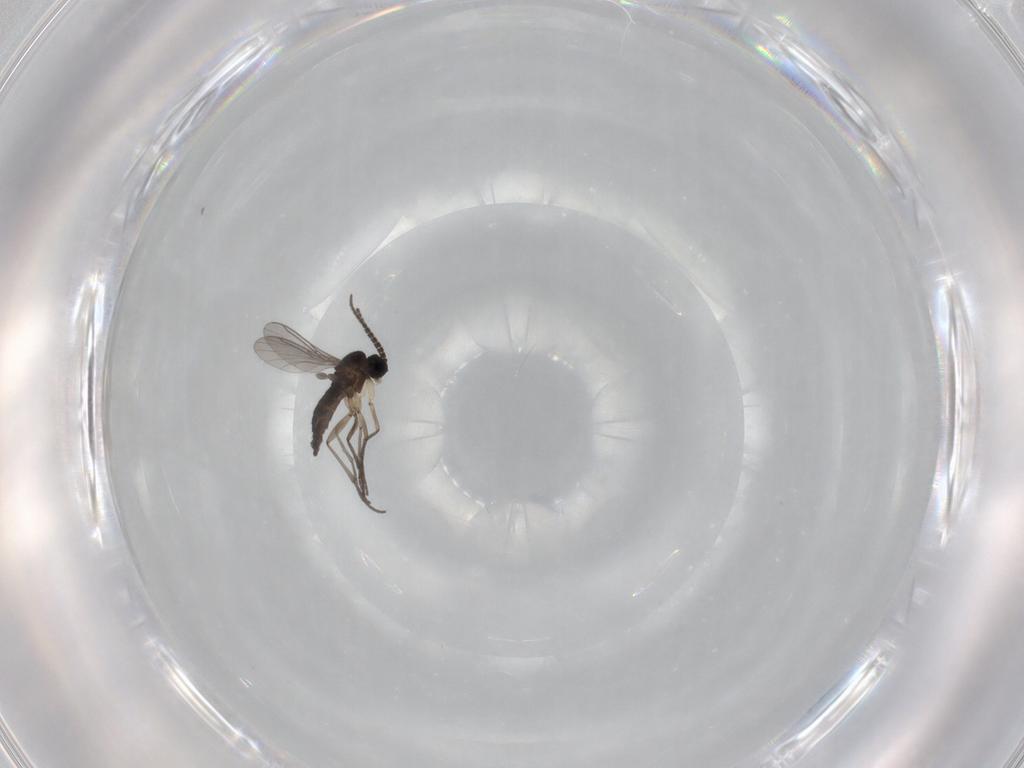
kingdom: Animalia
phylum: Arthropoda
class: Insecta
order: Diptera
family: Sciaridae
